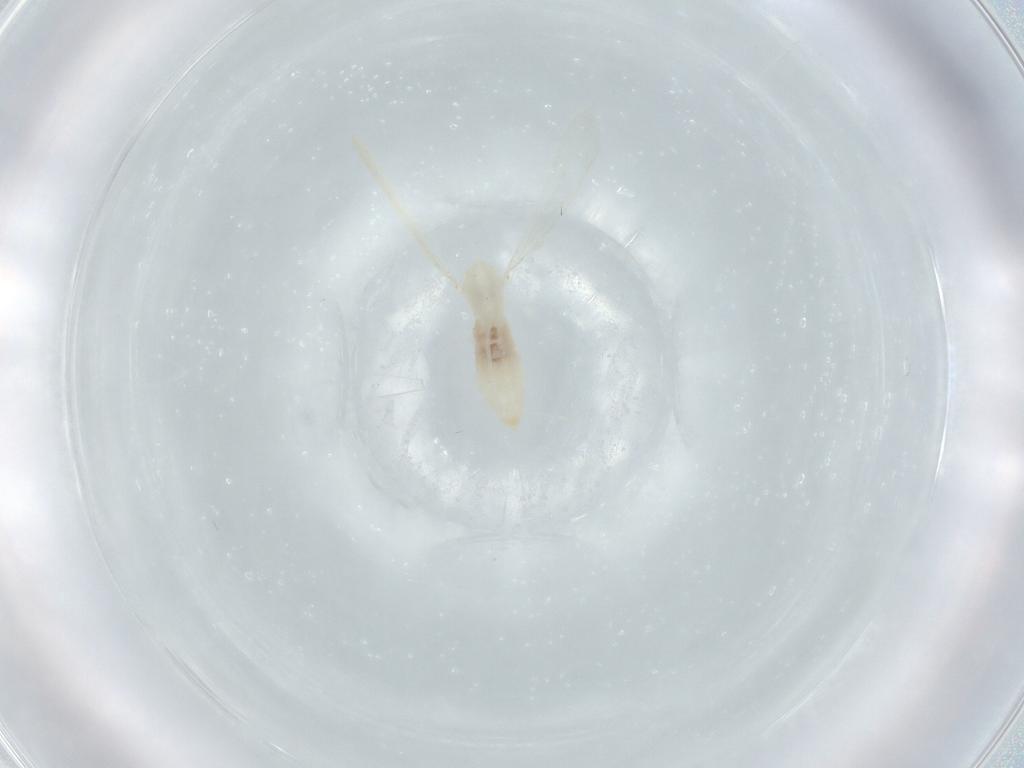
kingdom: Animalia
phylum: Arthropoda
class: Insecta
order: Diptera
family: Cecidomyiidae
